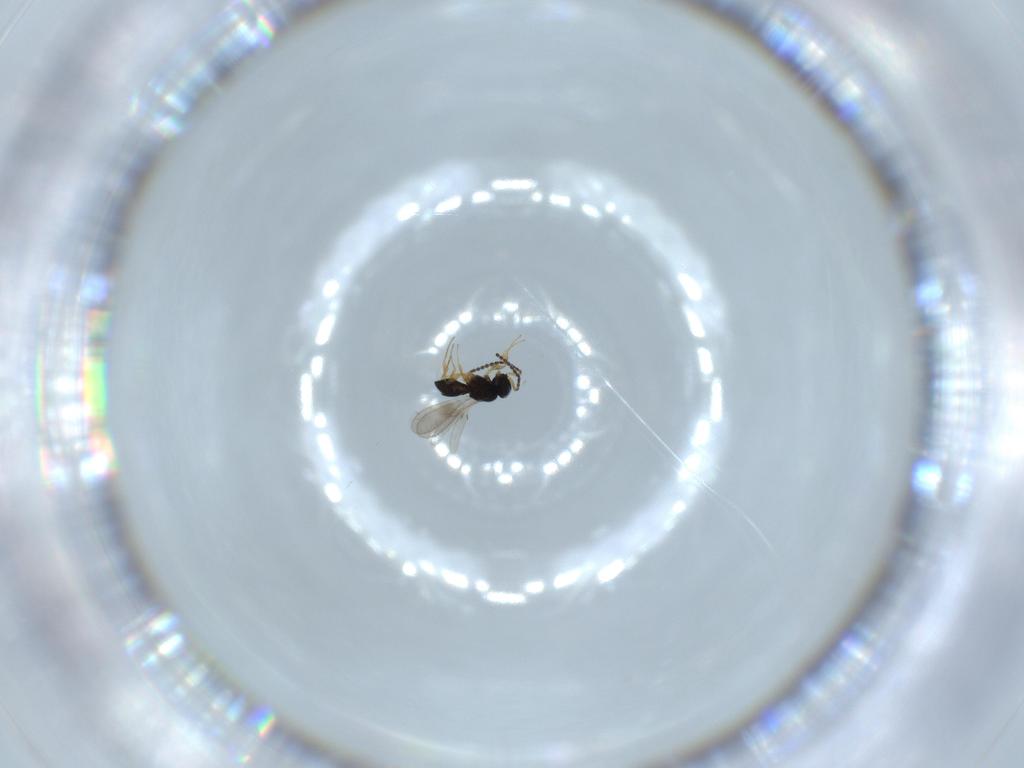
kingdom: Animalia
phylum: Arthropoda
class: Insecta
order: Hymenoptera
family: Scelionidae
